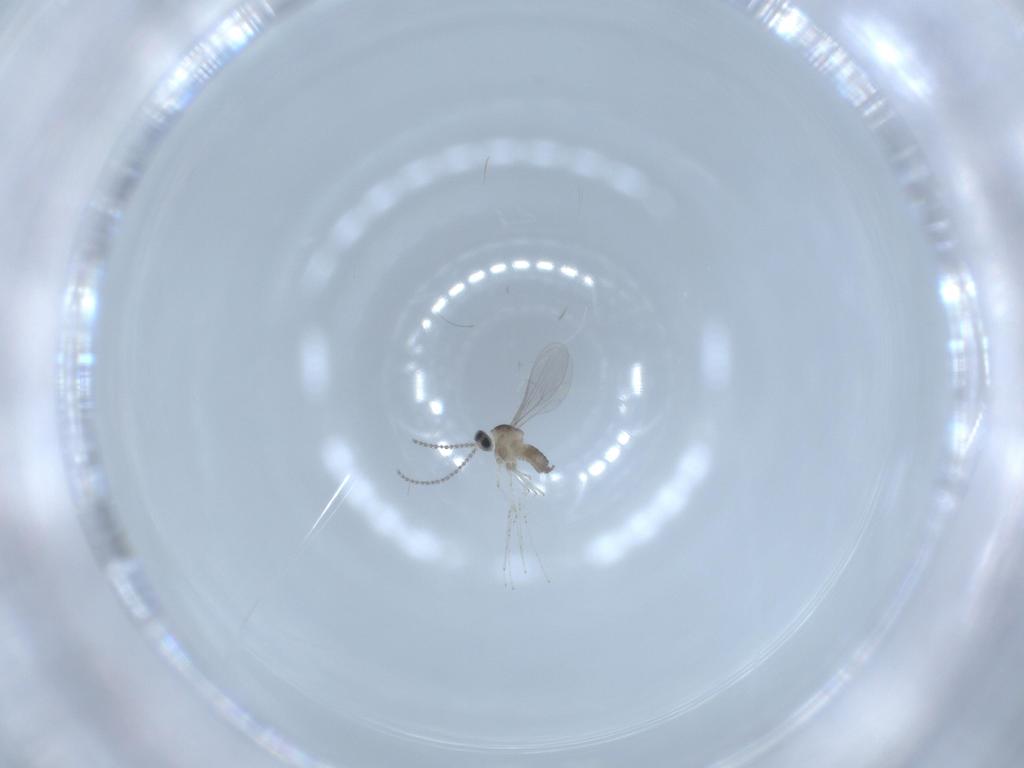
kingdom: Animalia
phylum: Arthropoda
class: Insecta
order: Diptera
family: Cecidomyiidae
